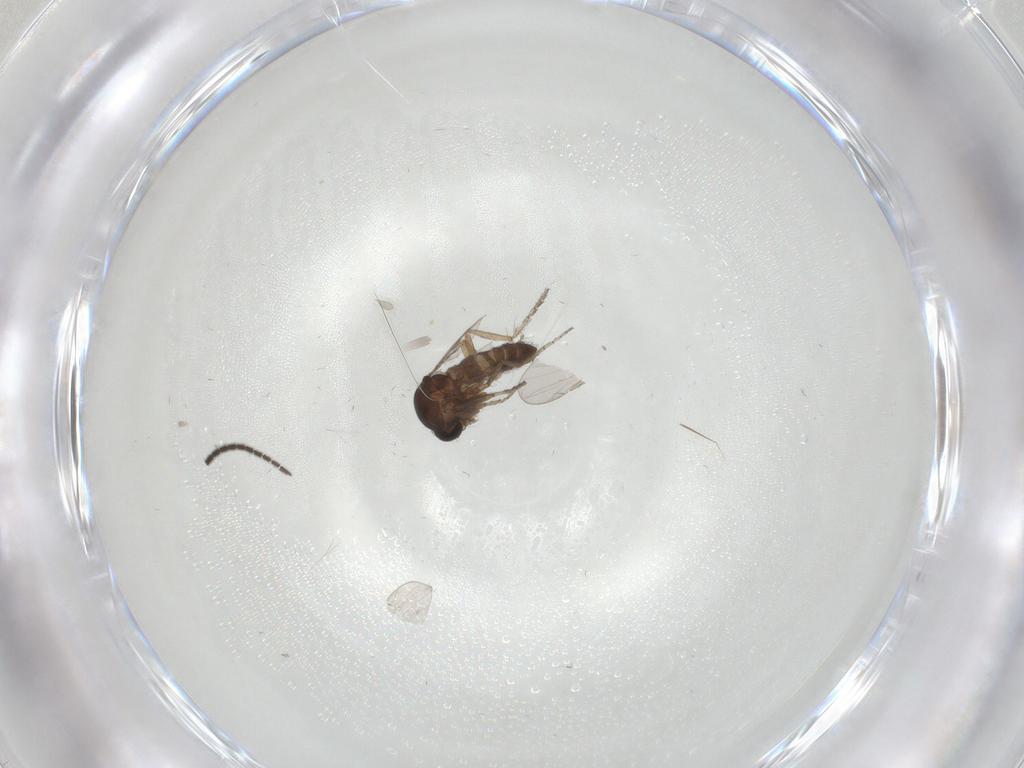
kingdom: Animalia
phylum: Arthropoda
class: Insecta
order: Diptera
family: Ceratopogonidae
